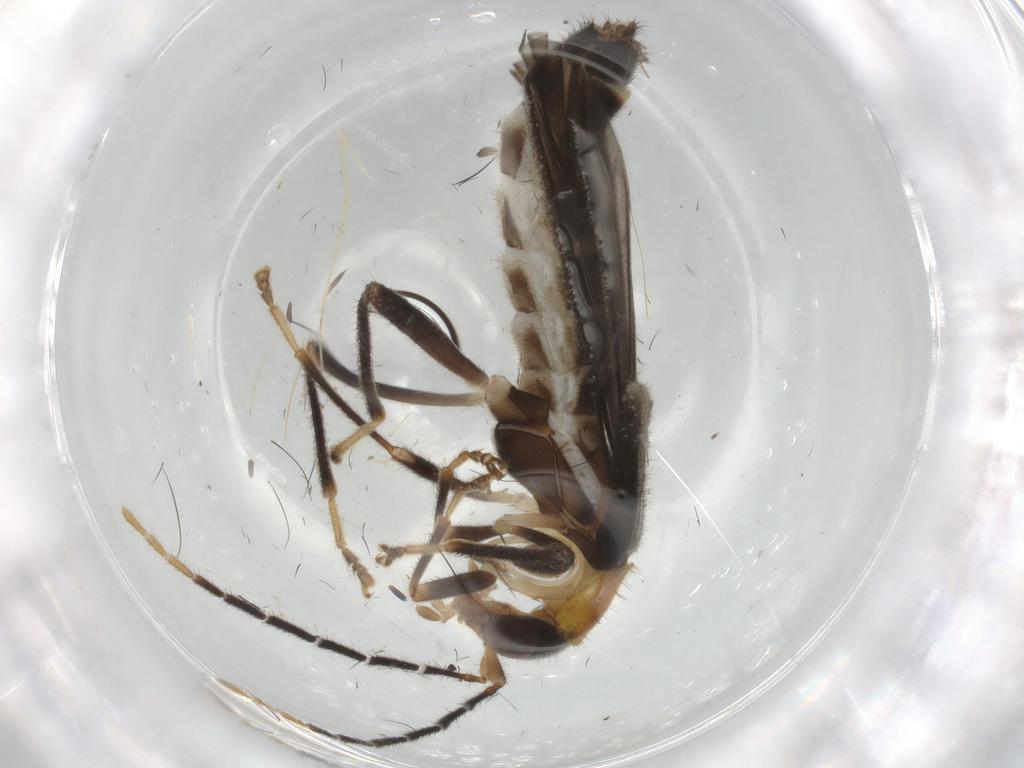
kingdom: Animalia
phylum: Arthropoda
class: Insecta
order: Coleoptera
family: Cantharidae
